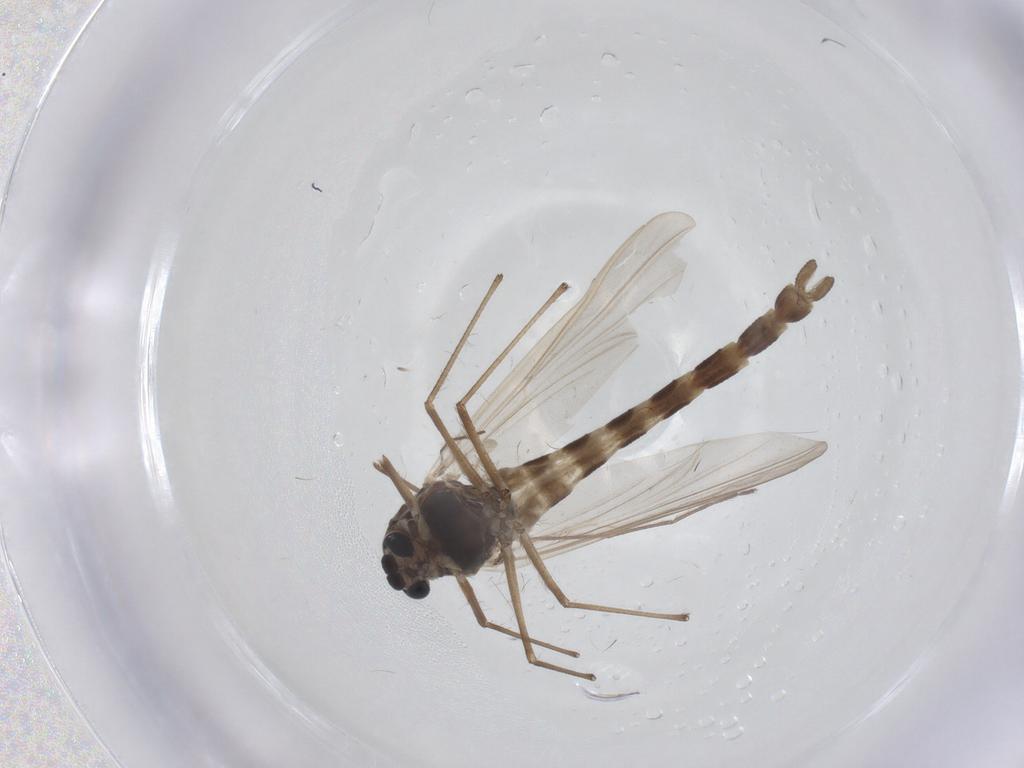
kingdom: Animalia
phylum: Arthropoda
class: Insecta
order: Diptera
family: Chironomidae
